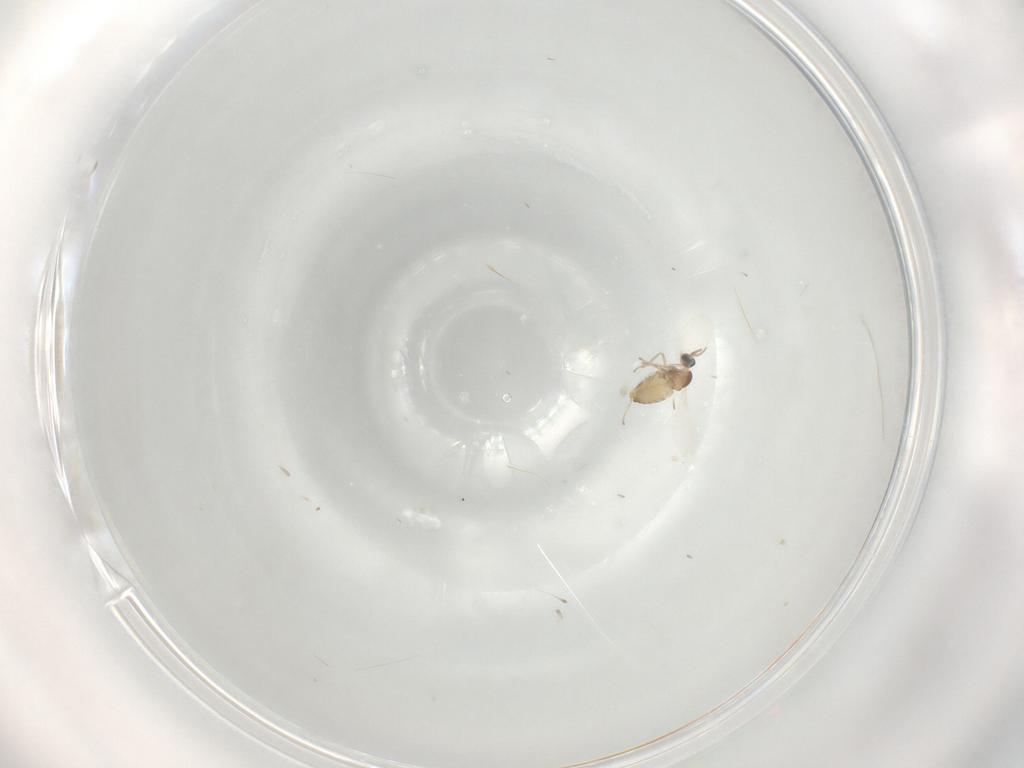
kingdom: Animalia
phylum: Arthropoda
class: Insecta
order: Diptera
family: Cecidomyiidae
